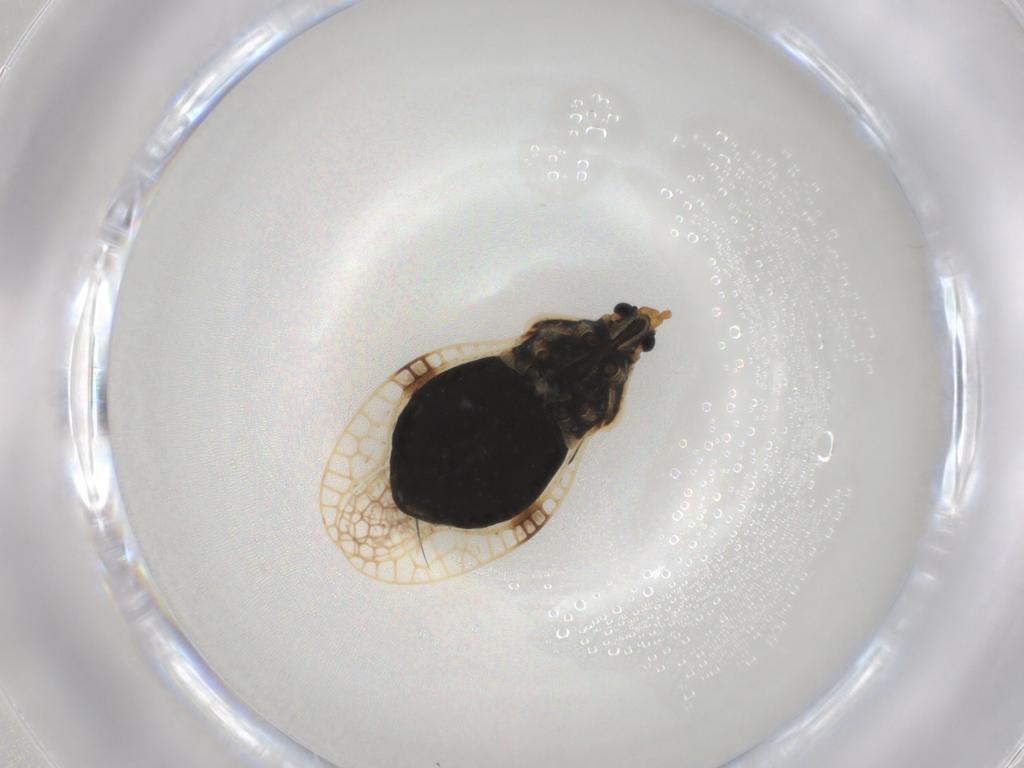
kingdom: Animalia
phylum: Arthropoda
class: Insecta
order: Hemiptera
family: Tingidae
